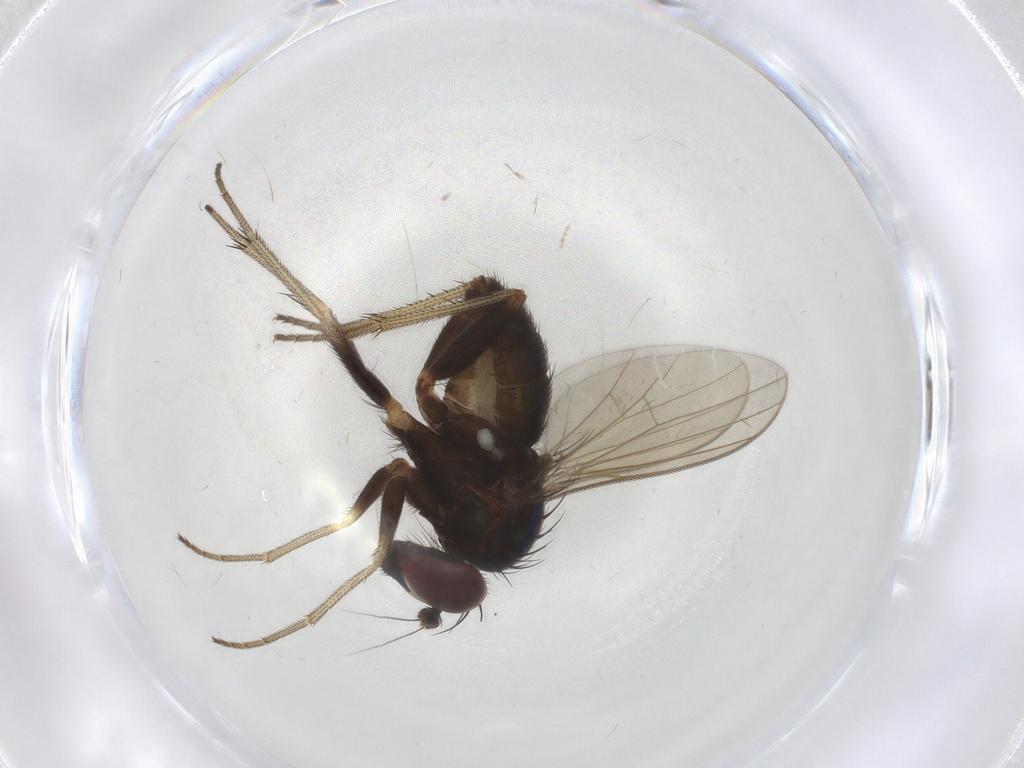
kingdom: Animalia
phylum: Arthropoda
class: Insecta
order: Diptera
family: Dolichopodidae
